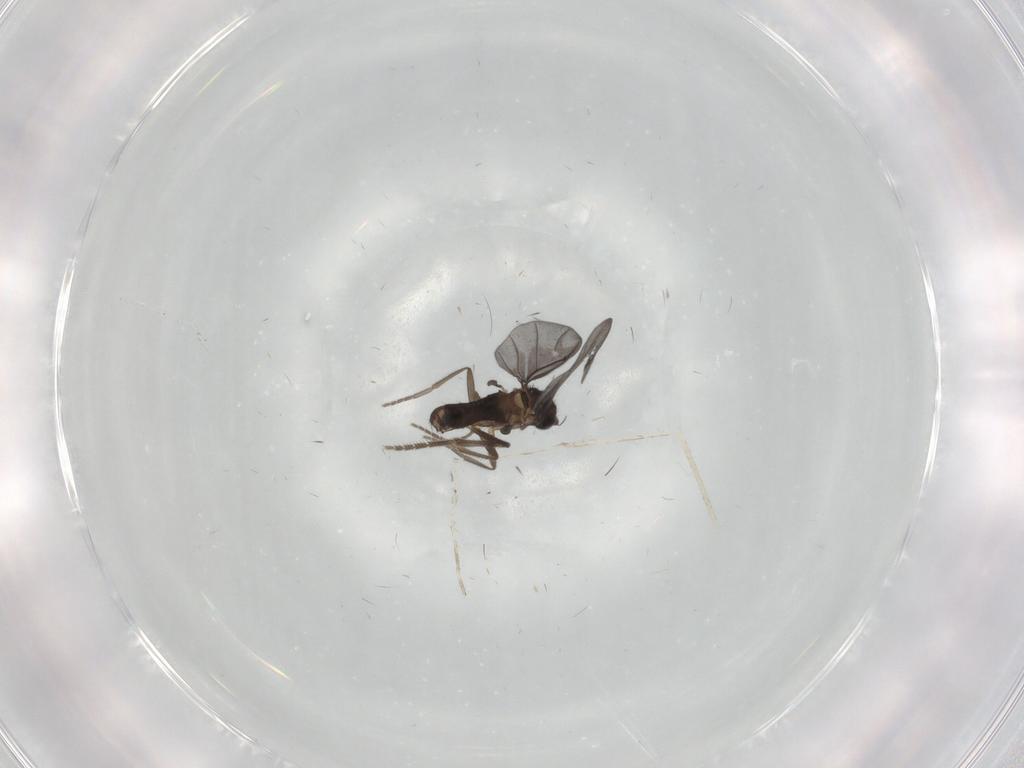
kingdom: Animalia
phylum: Arthropoda
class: Insecta
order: Diptera
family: Phoridae
